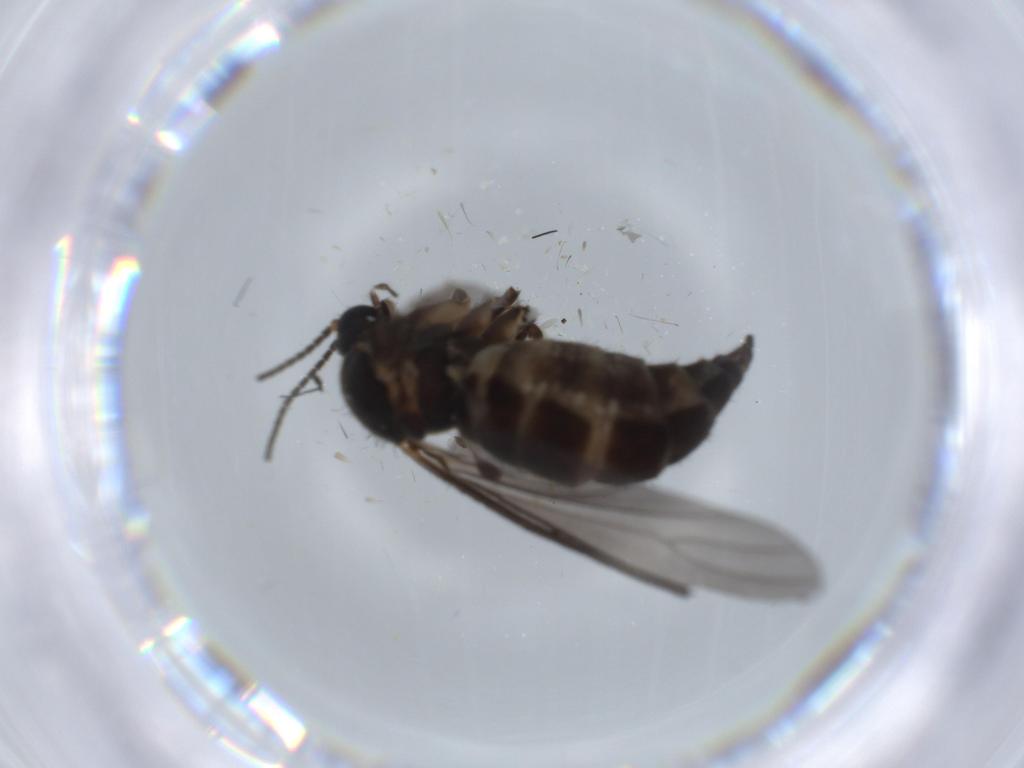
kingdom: Animalia
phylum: Arthropoda
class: Insecta
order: Diptera
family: Sciaridae
